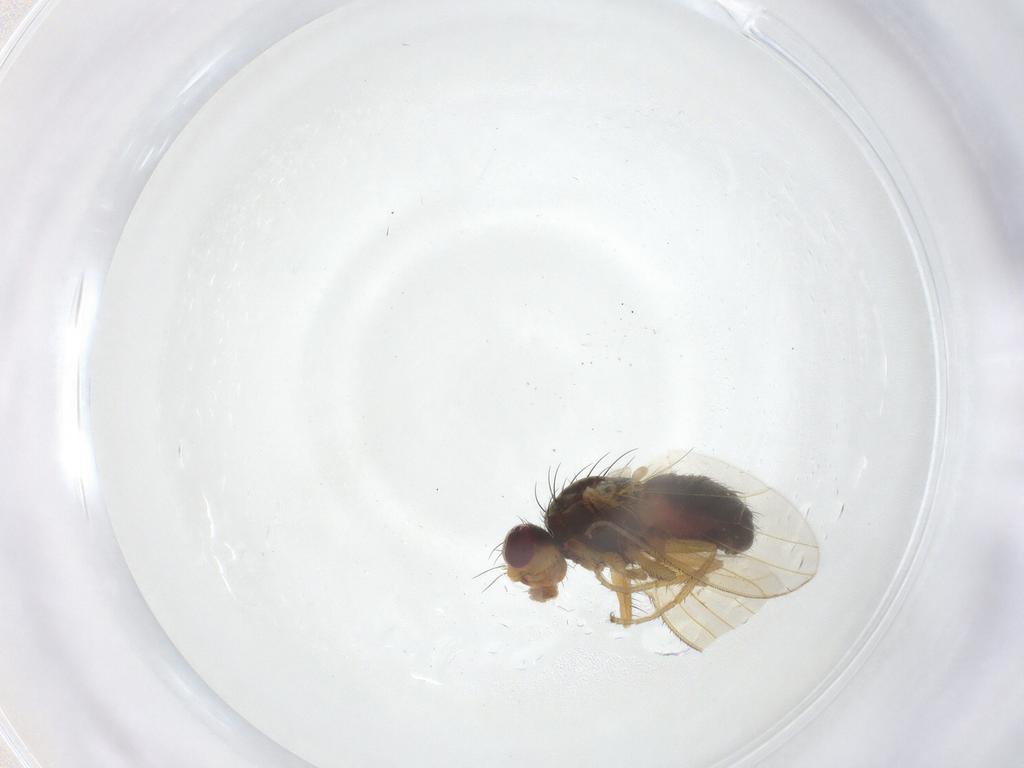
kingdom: Animalia
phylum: Arthropoda
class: Insecta
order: Diptera
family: Heleomyzidae
